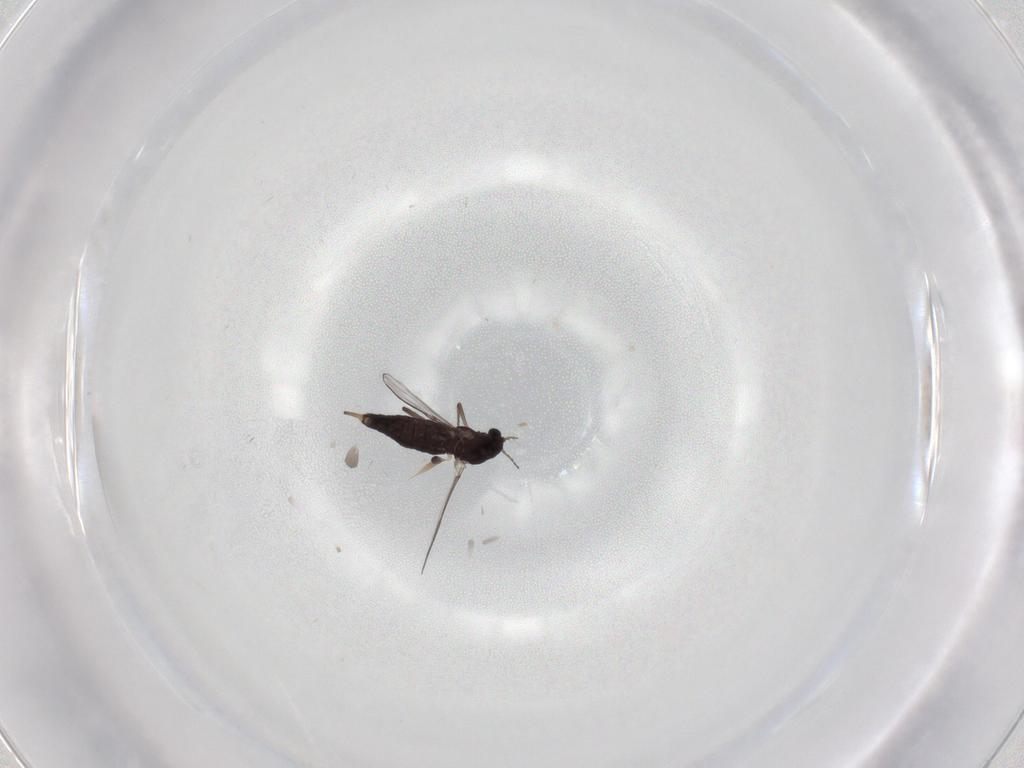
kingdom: Animalia
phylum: Arthropoda
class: Insecta
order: Diptera
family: Chironomidae
